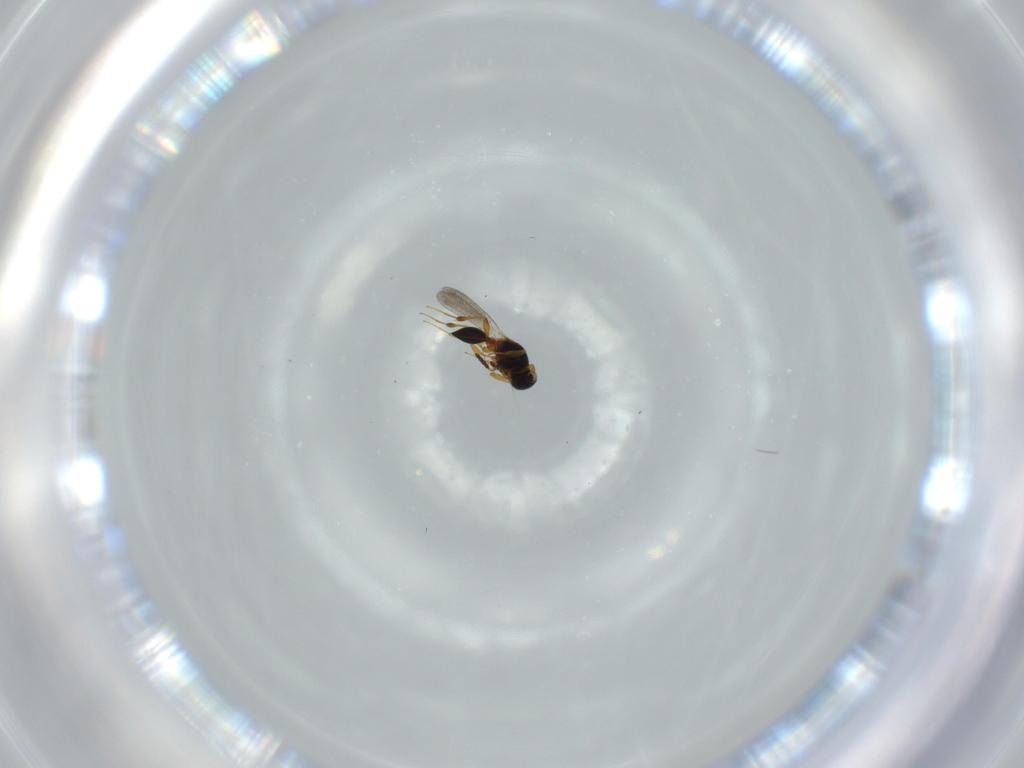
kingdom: Animalia
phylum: Arthropoda
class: Insecta
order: Hymenoptera
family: Platygastridae
